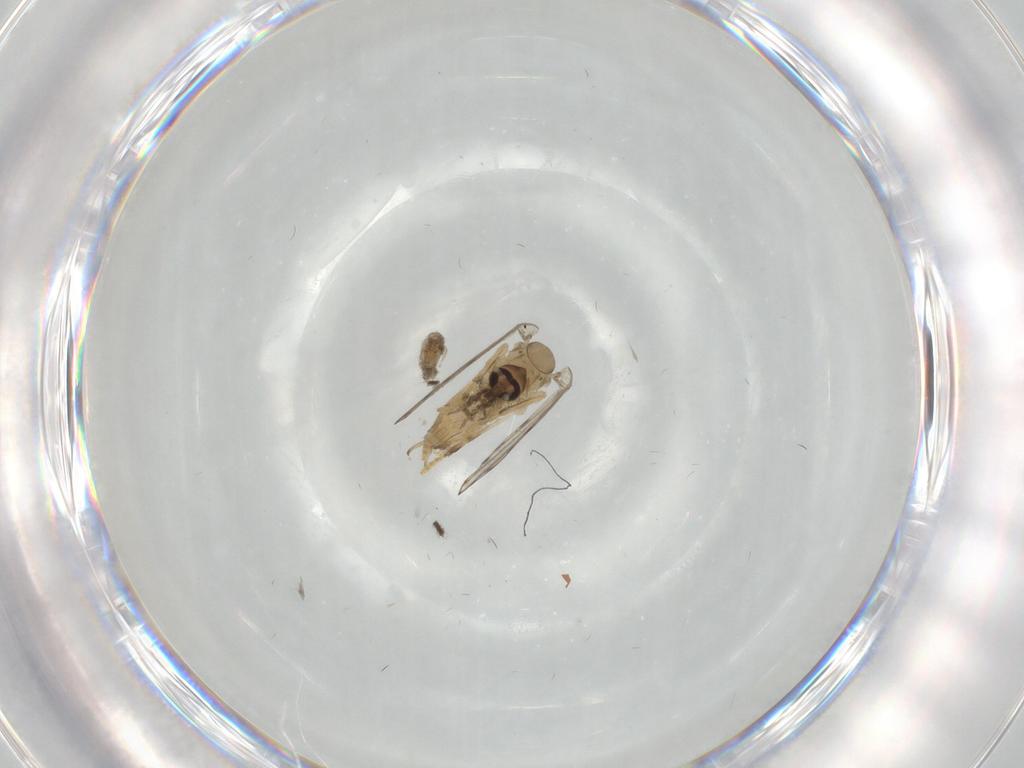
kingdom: Animalia
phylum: Arthropoda
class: Insecta
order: Diptera
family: Chironomidae
